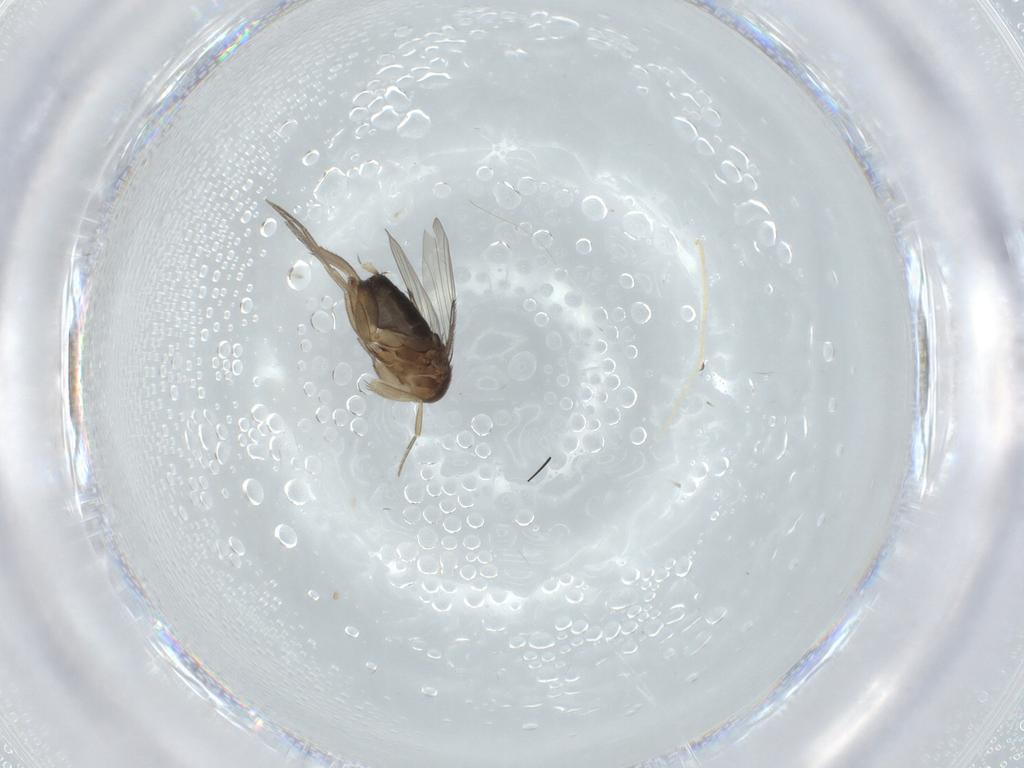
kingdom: Animalia
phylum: Arthropoda
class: Insecta
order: Diptera
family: Phoridae
